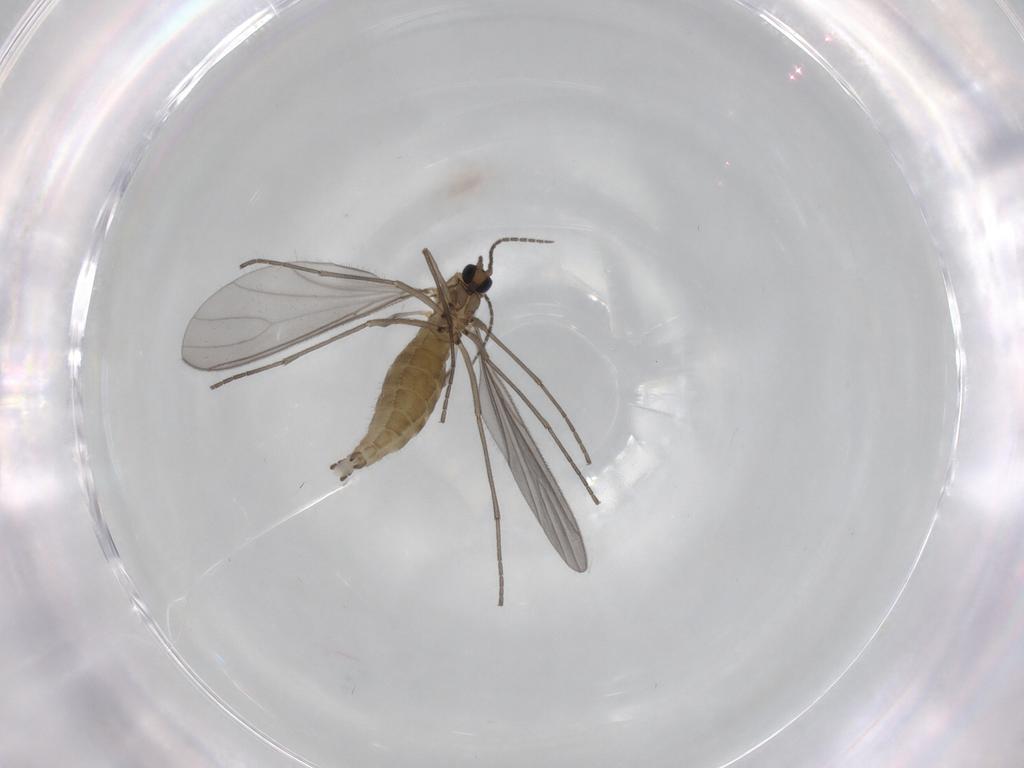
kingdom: Animalia
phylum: Arthropoda
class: Insecta
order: Diptera
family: Sciaridae
